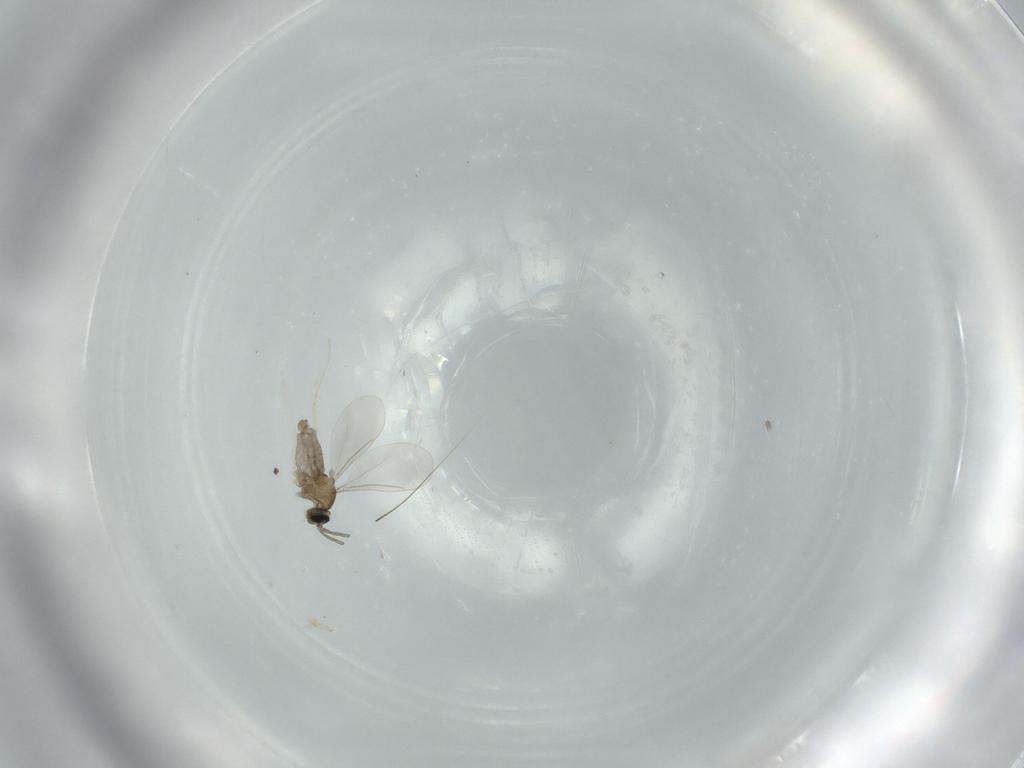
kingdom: Animalia
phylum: Arthropoda
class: Insecta
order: Diptera
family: Cecidomyiidae
